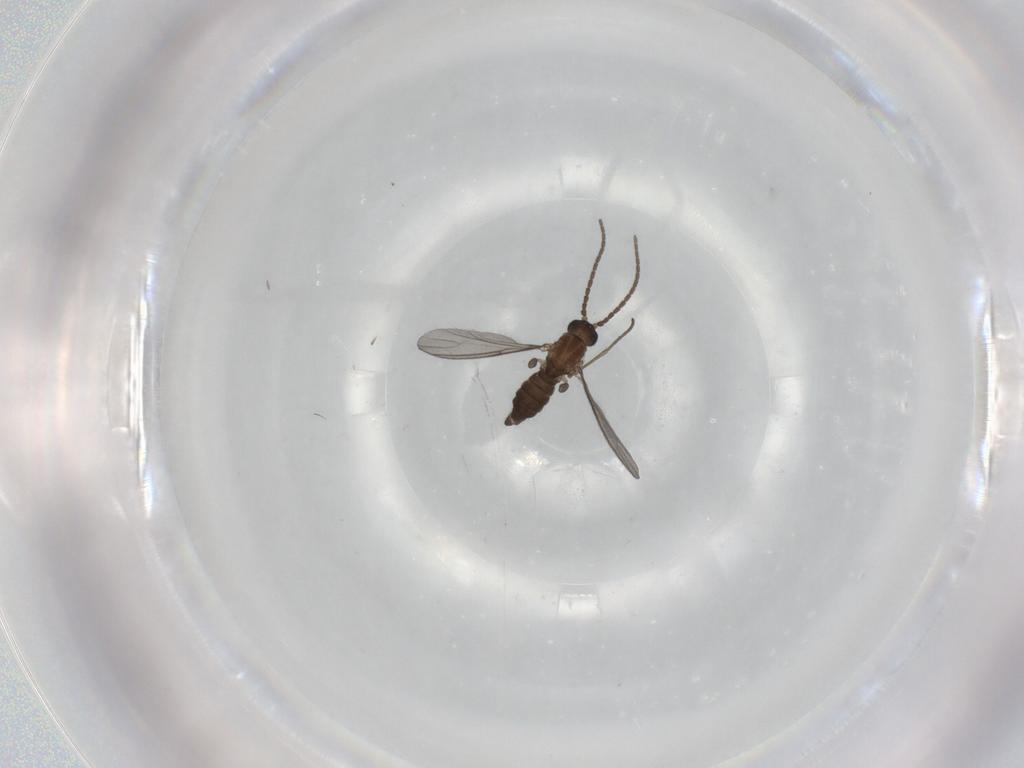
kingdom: Animalia
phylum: Arthropoda
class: Insecta
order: Diptera
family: Sciaridae
